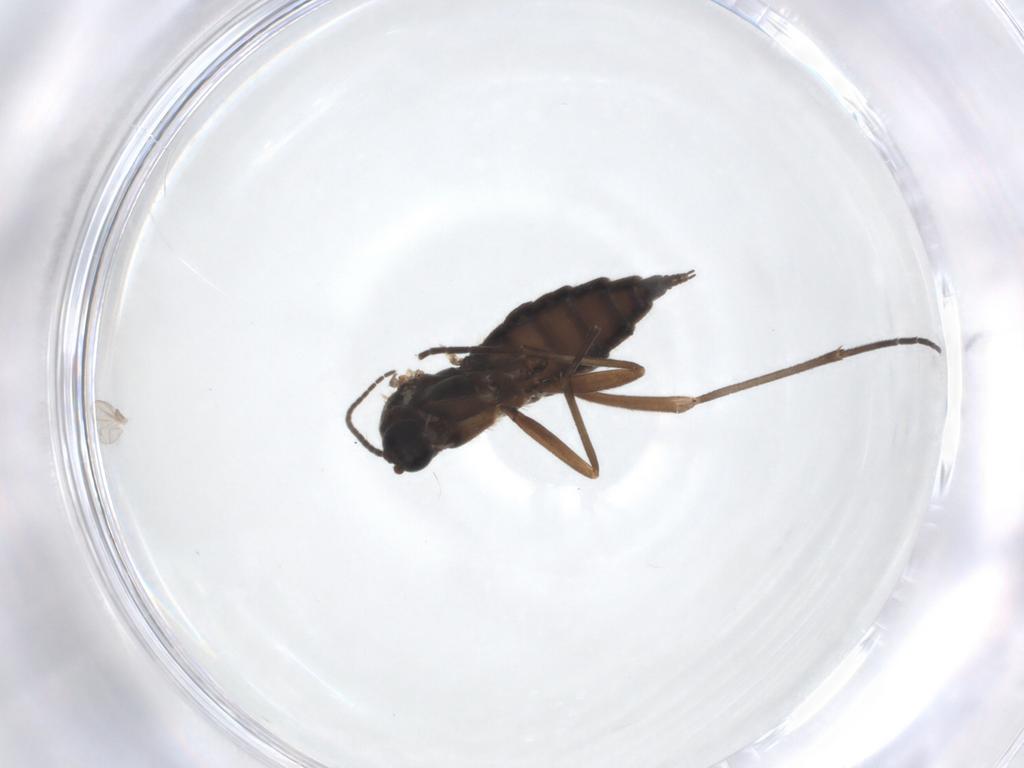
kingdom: Animalia
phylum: Arthropoda
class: Insecta
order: Diptera
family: Sciaridae
